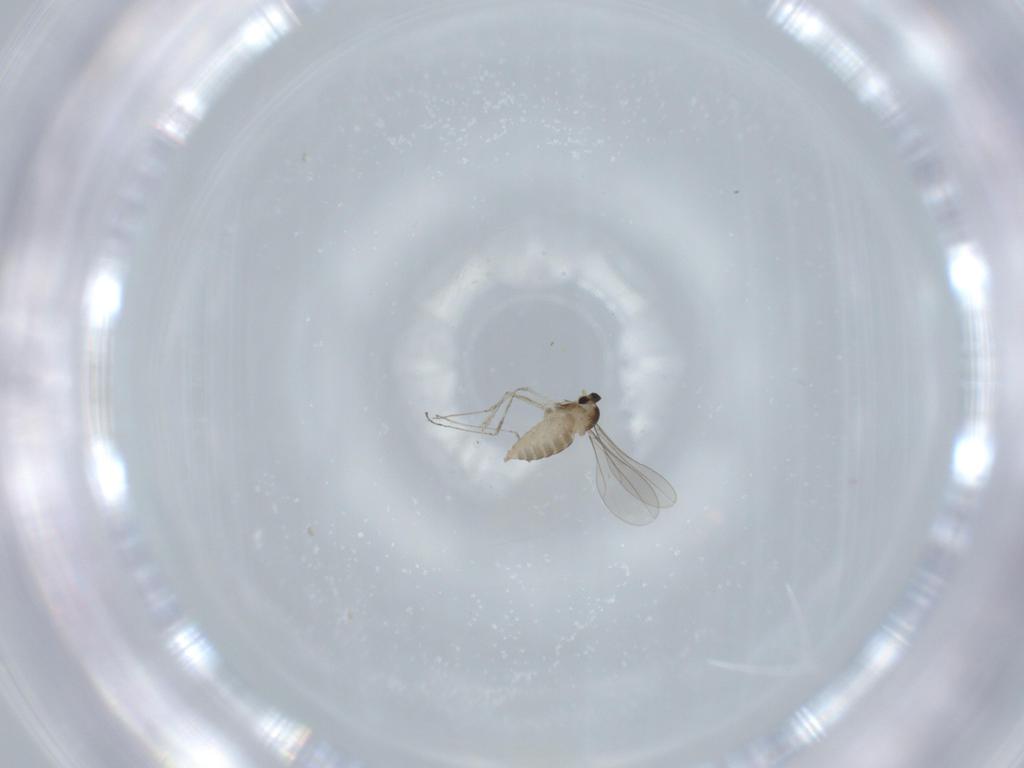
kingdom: Animalia
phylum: Arthropoda
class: Insecta
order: Diptera
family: Cecidomyiidae
